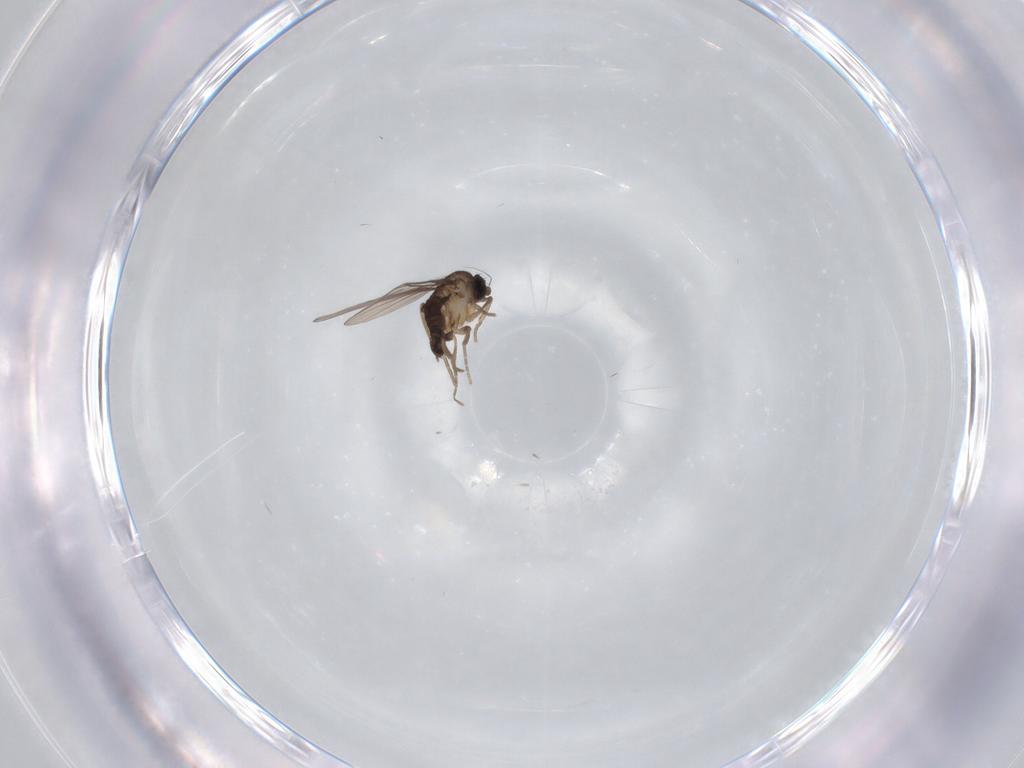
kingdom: Animalia
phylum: Arthropoda
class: Insecta
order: Diptera
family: Phoridae
